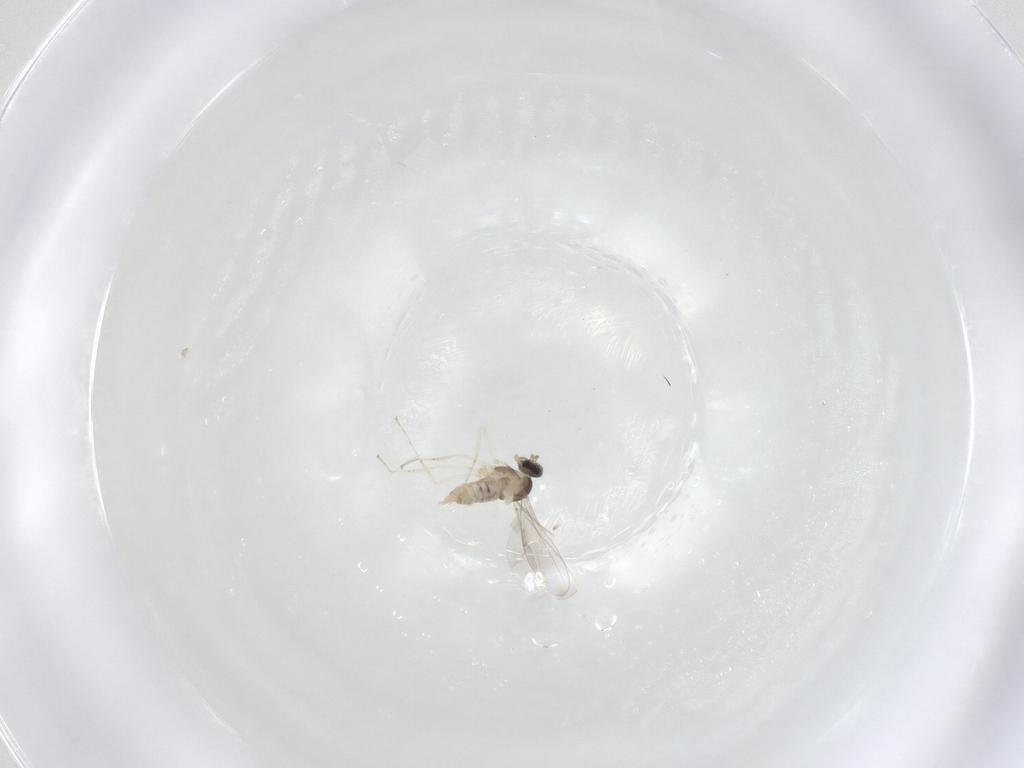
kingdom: Animalia
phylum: Arthropoda
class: Insecta
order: Diptera
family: Cecidomyiidae
